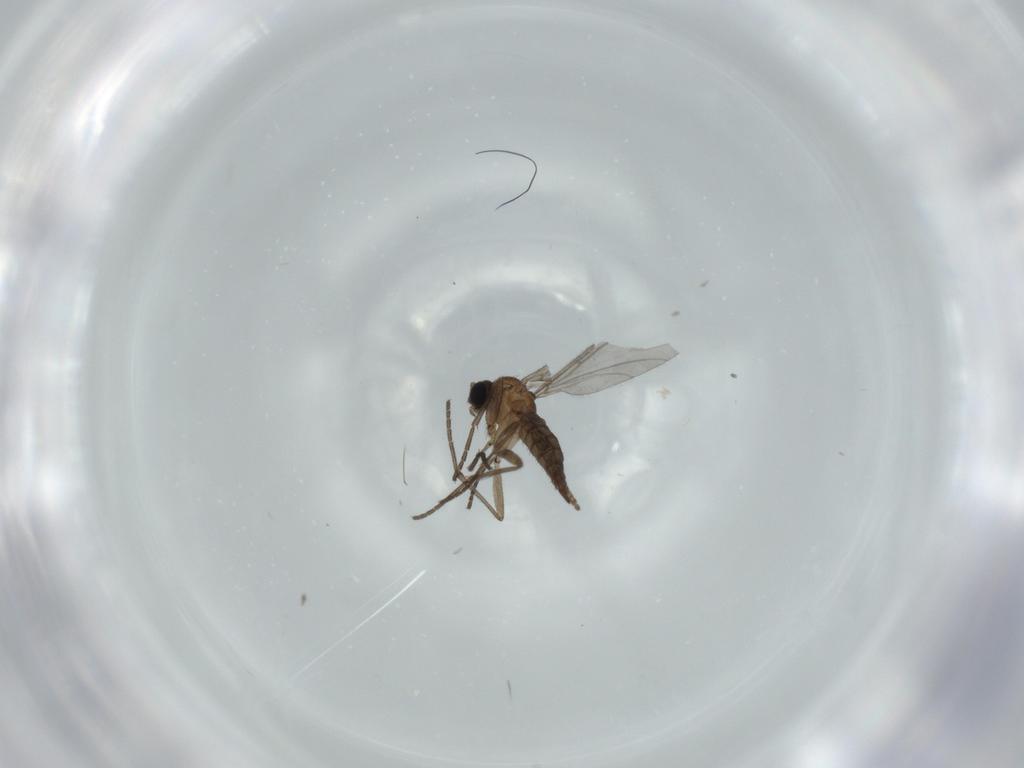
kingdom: Animalia
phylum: Arthropoda
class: Insecta
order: Diptera
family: Sciaridae
